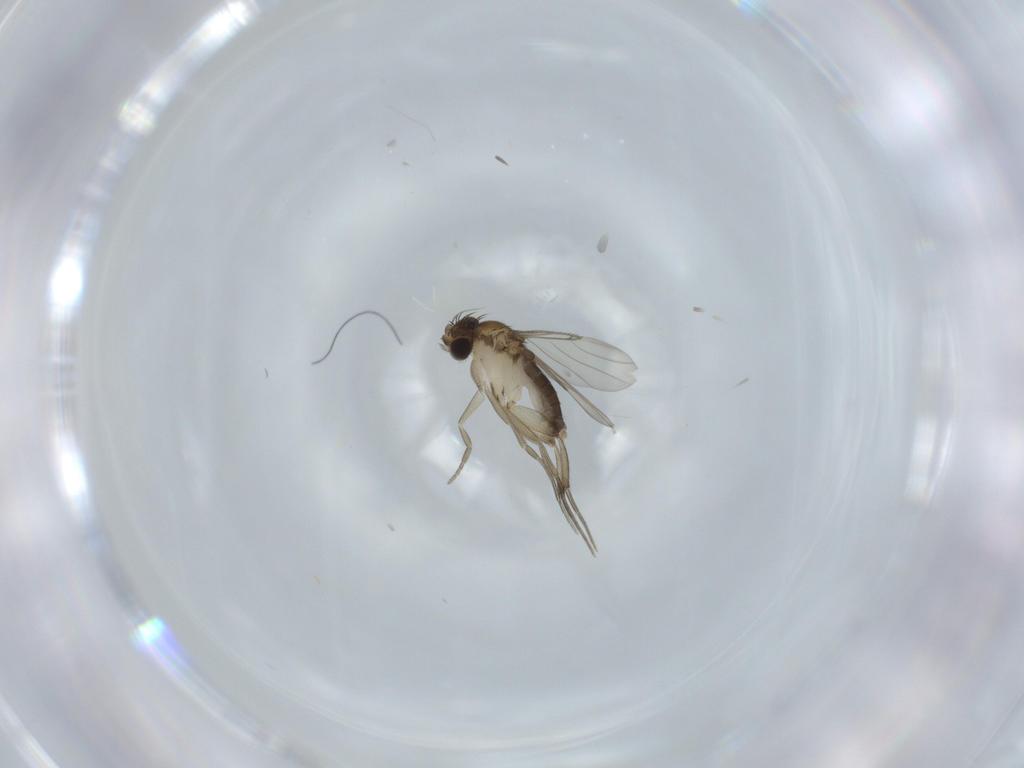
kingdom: Animalia
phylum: Arthropoda
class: Insecta
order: Diptera
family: Phoridae
